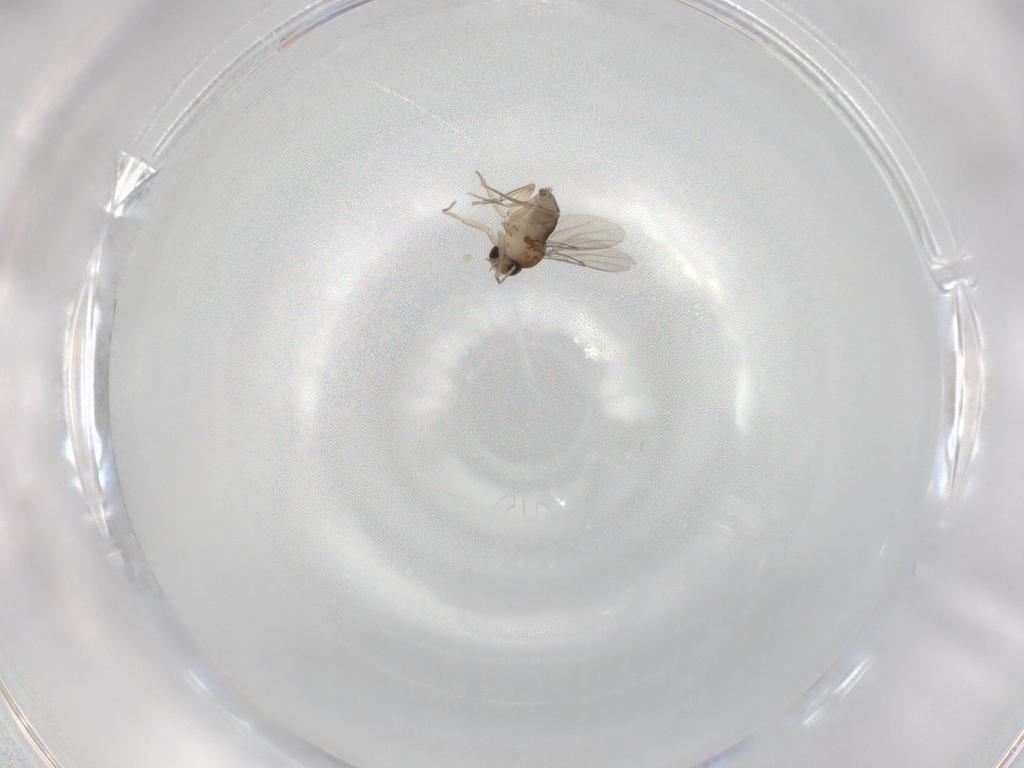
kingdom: Animalia
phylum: Arthropoda
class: Insecta
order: Diptera
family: Phoridae
